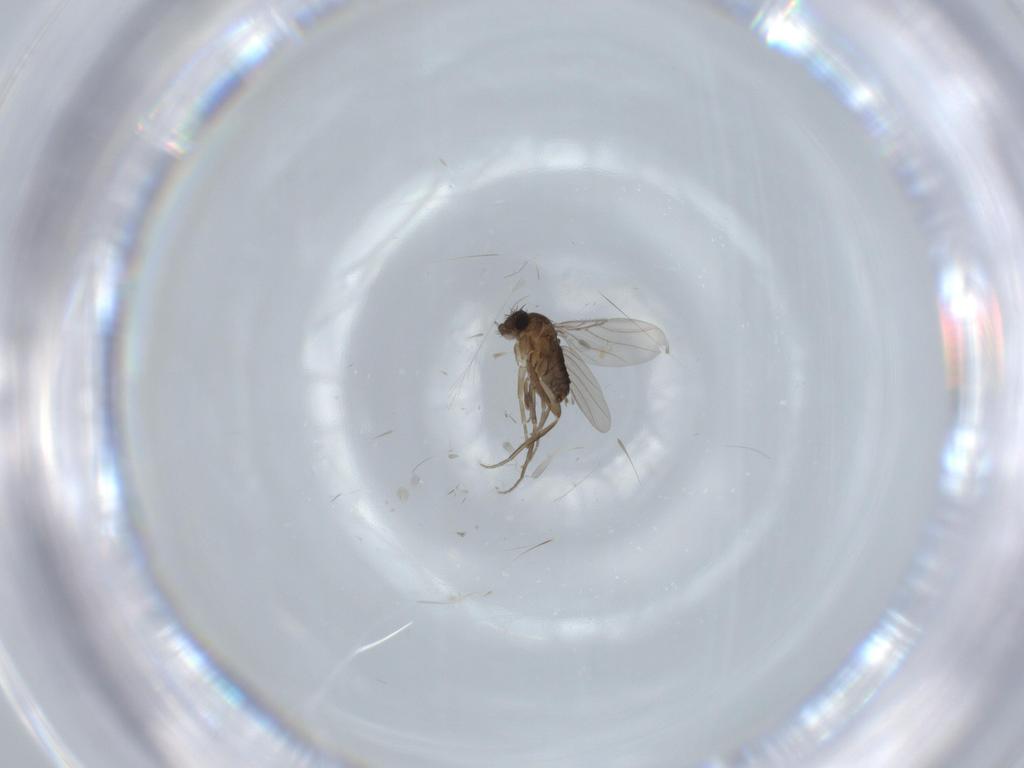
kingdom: Animalia
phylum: Arthropoda
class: Insecta
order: Diptera
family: Phoridae
